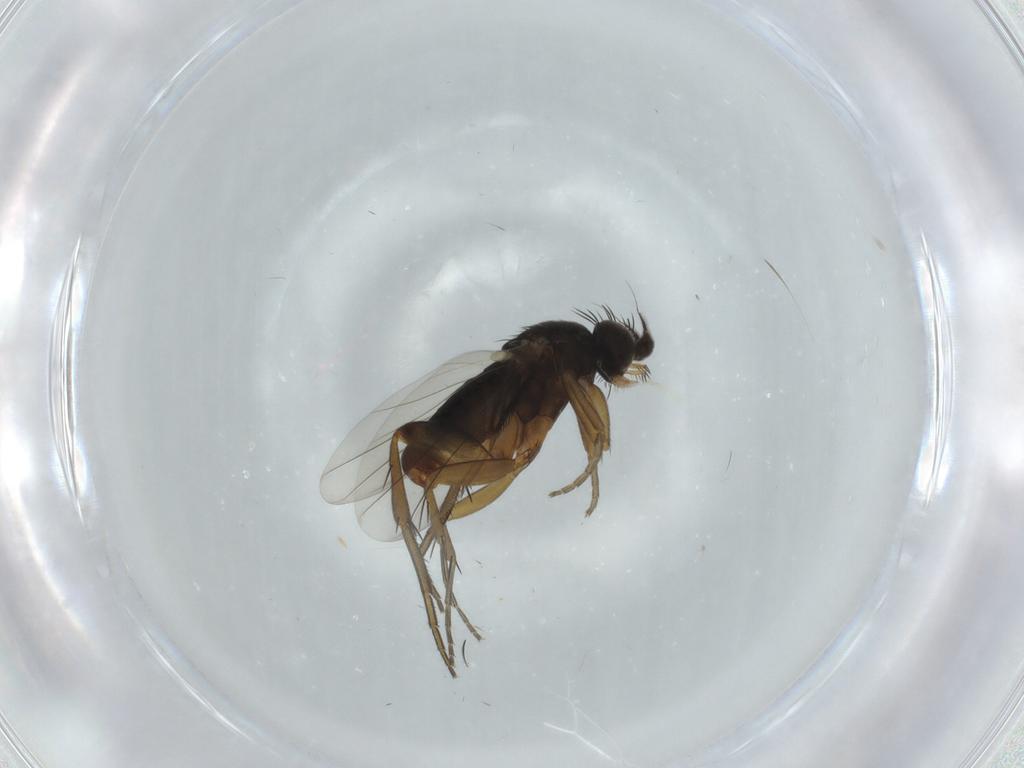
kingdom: Animalia
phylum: Arthropoda
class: Insecta
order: Diptera
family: Phoridae
